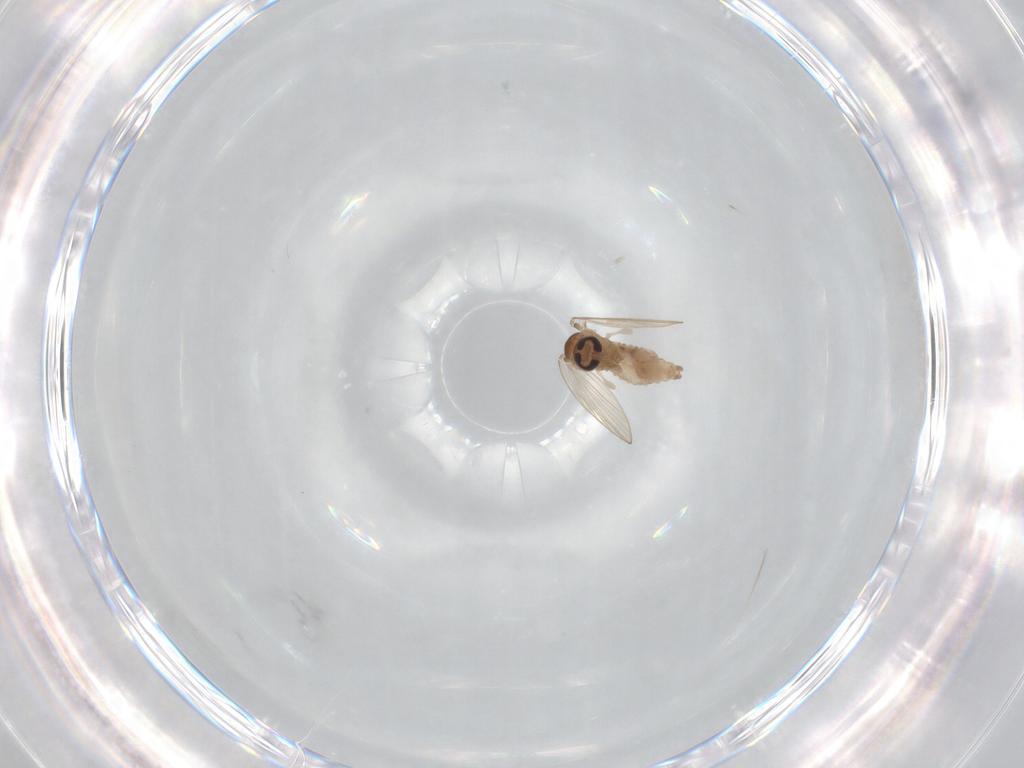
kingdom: Animalia
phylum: Arthropoda
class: Insecta
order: Diptera
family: Psychodidae
